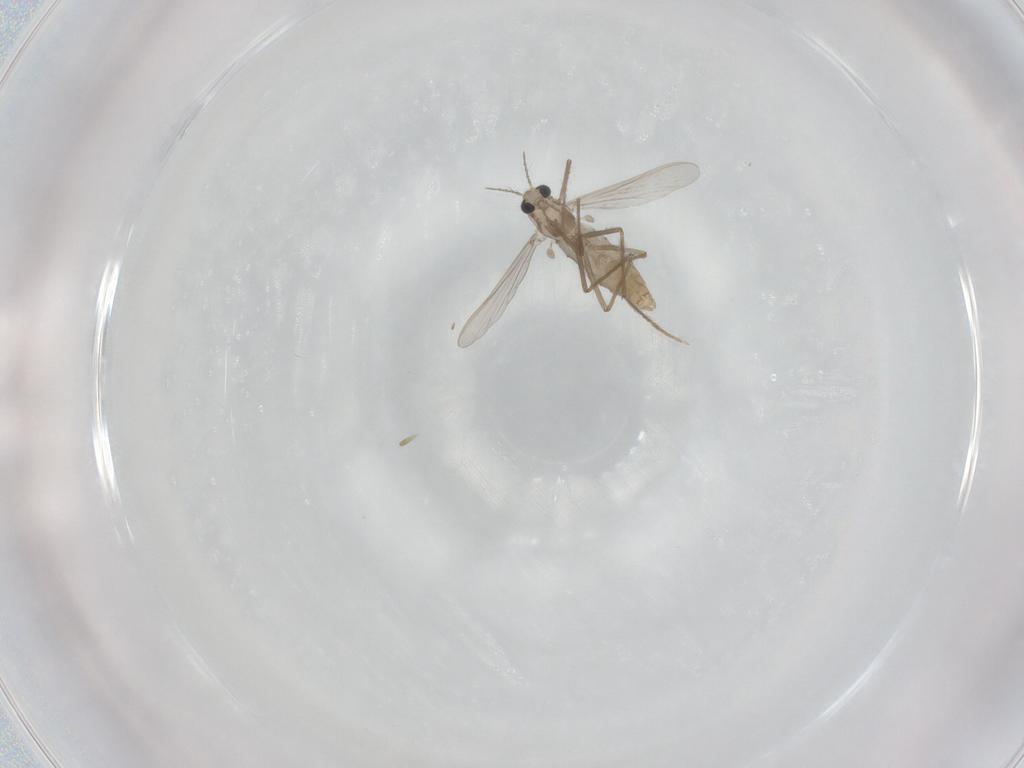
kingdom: Animalia
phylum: Arthropoda
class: Insecta
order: Diptera
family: Chironomidae
